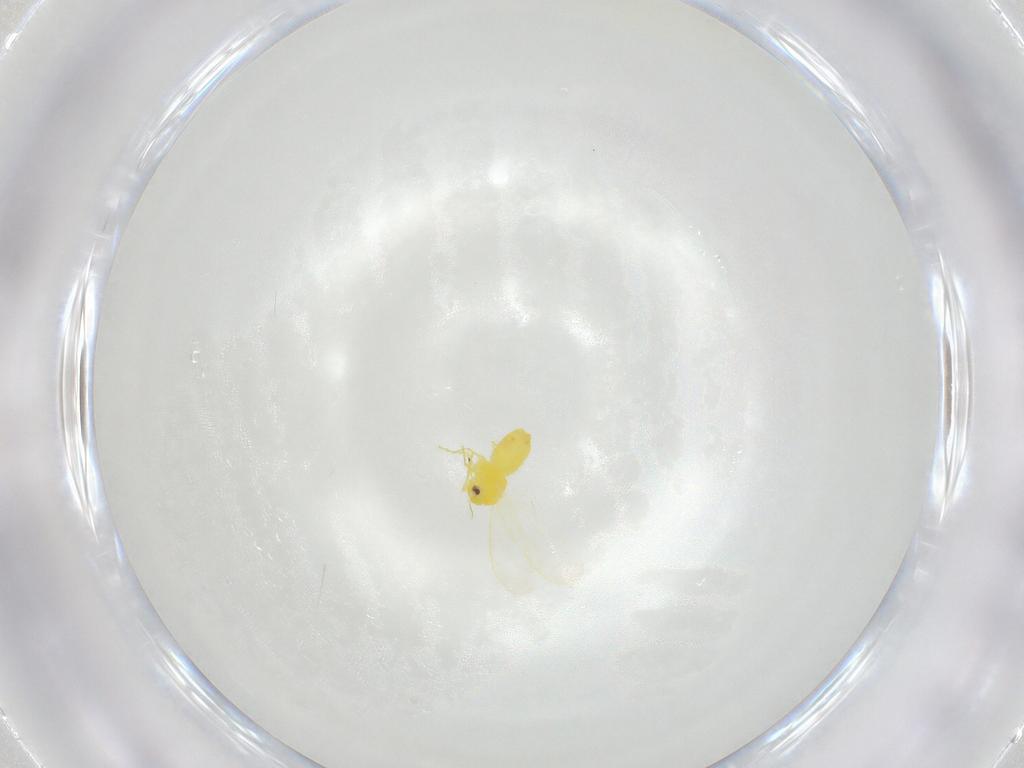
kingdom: Animalia
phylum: Arthropoda
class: Insecta
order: Hemiptera
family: Aleyrodidae
